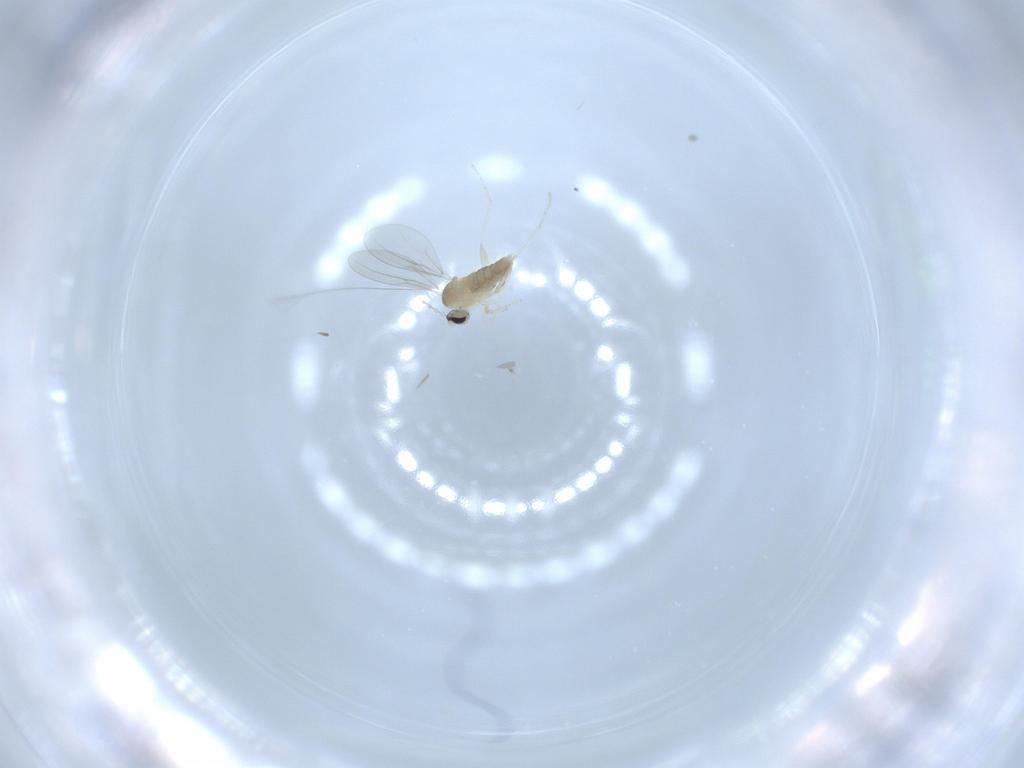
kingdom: Animalia
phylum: Arthropoda
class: Insecta
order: Diptera
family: Cecidomyiidae
